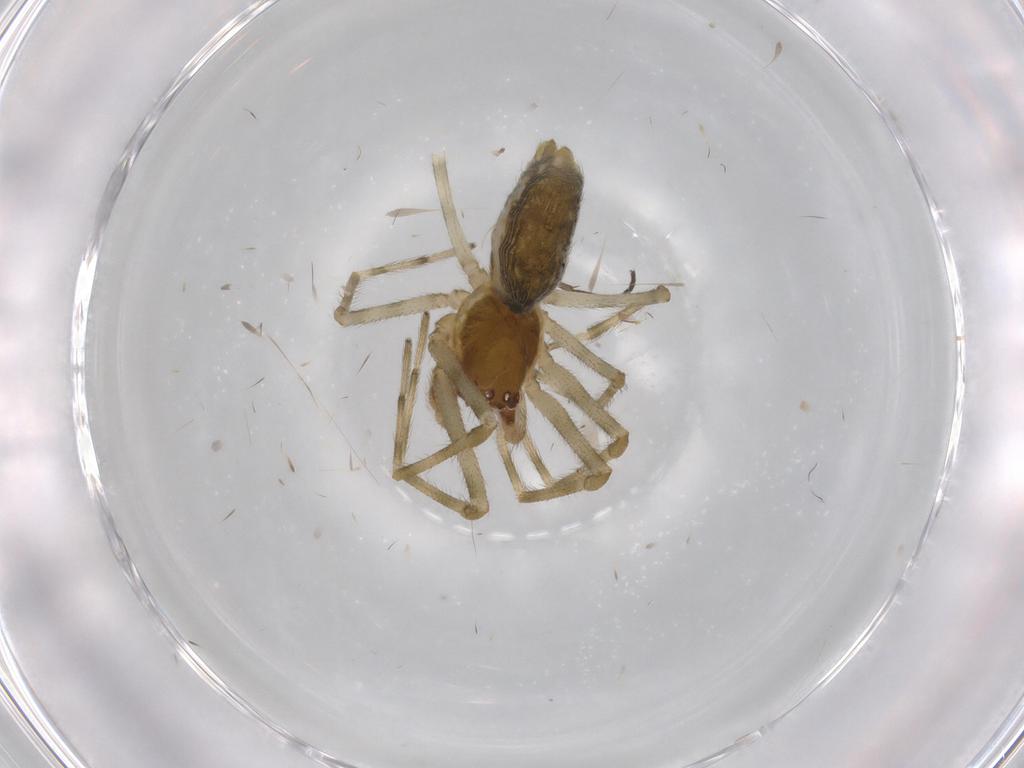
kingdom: Animalia
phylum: Arthropoda
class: Arachnida
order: Araneae
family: Dictynidae
